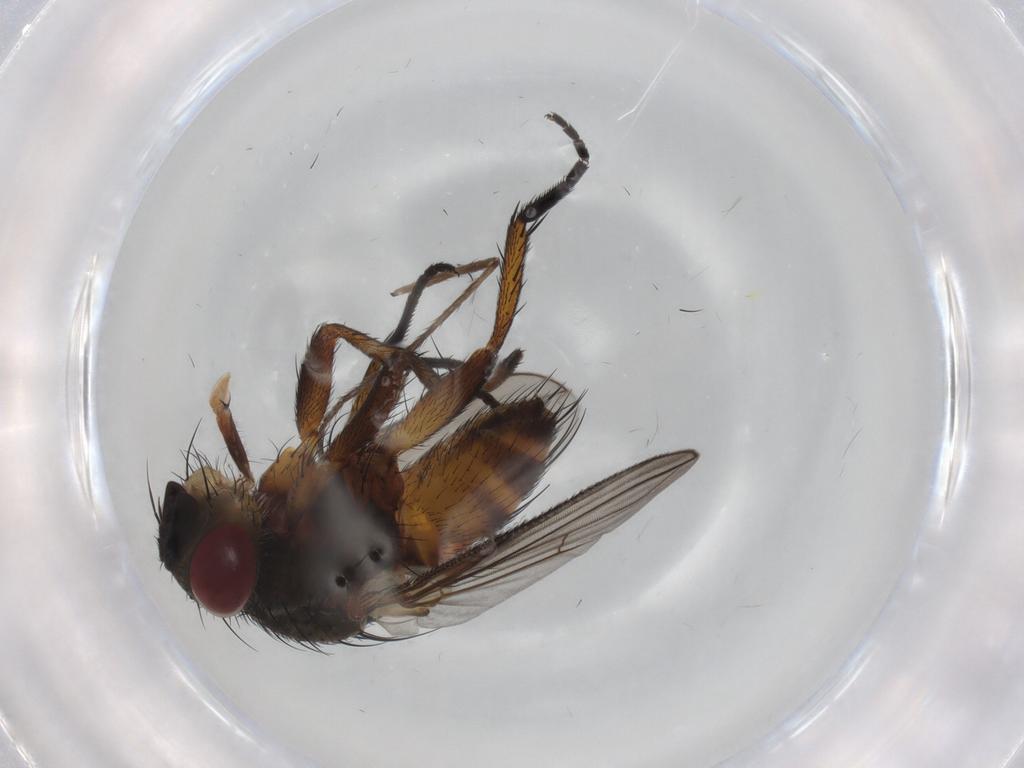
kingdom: Animalia
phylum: Arthropoda
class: Insecta
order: Diptera
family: Tachinidae
